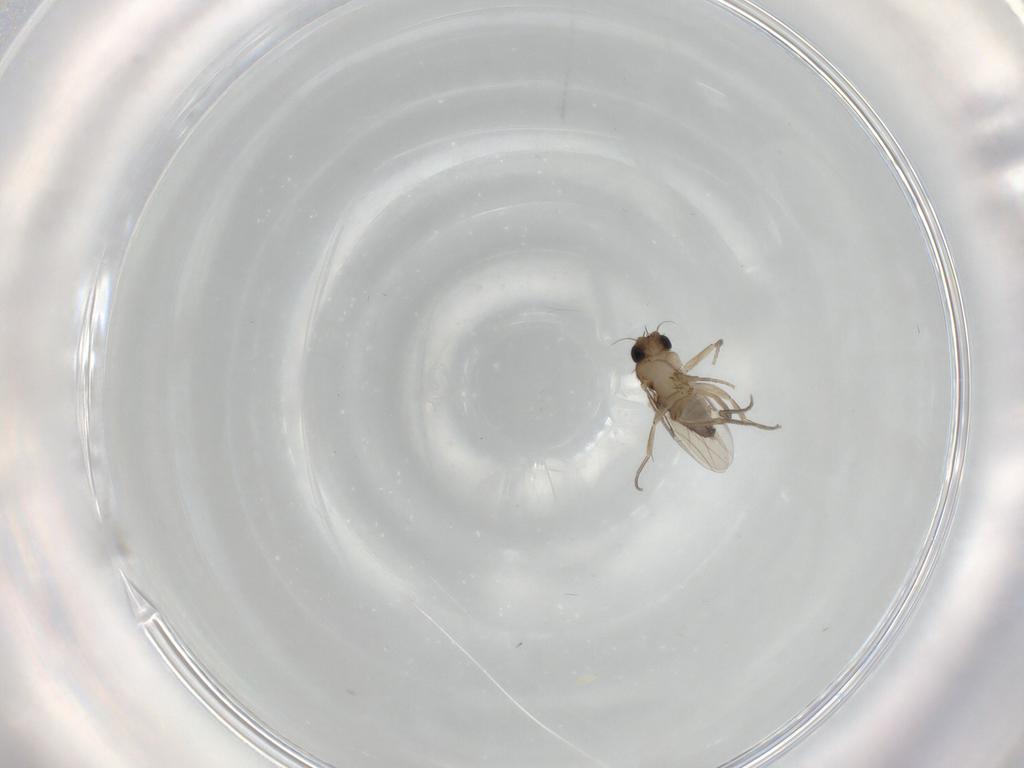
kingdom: Animalia
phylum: Arthropoda
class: Insecta
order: Diptera
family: Phoridae
